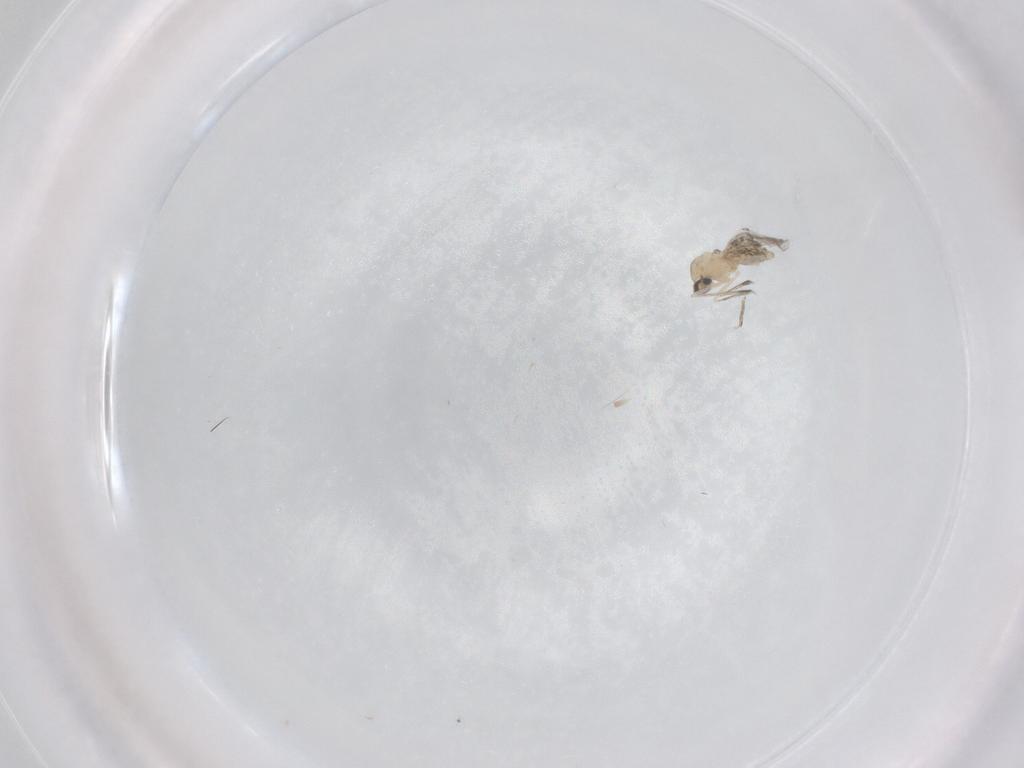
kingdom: Animalia
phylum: Arthropoda
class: Insecta
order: Diptera
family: Cecidomyiidae
